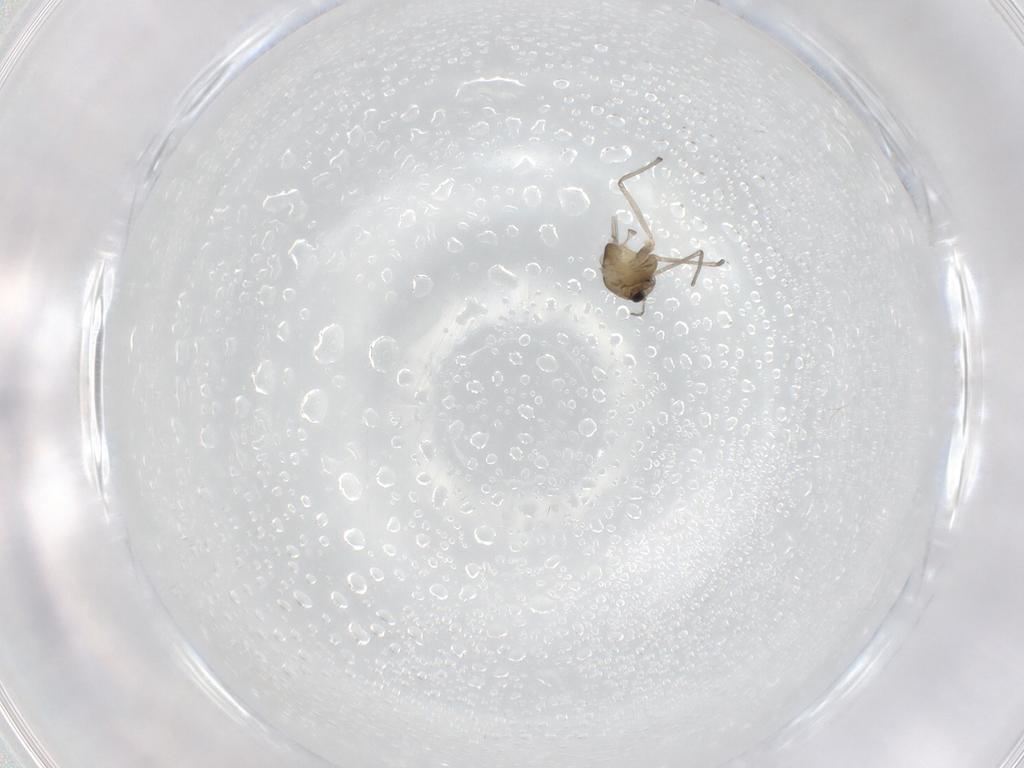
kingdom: Animalia
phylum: Arthropoda
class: Insecta
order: Diptera
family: Chironomidae
